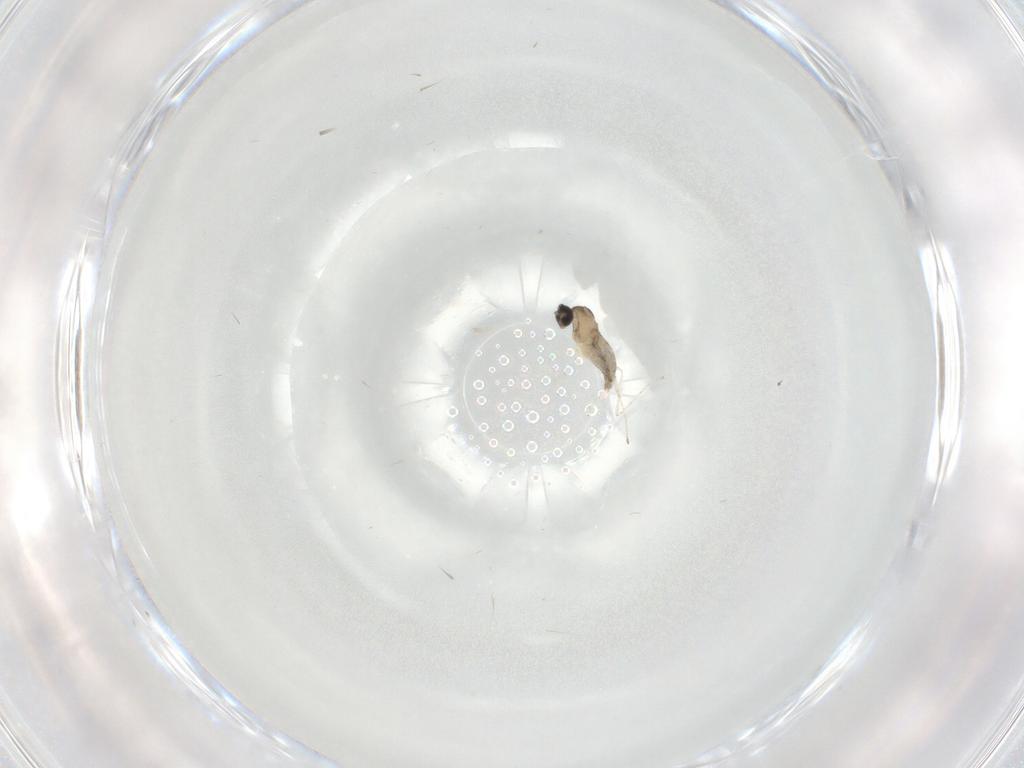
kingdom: Animalia
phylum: Arthropoda
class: Insecta
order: Diptera
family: Cecidomyiidae
